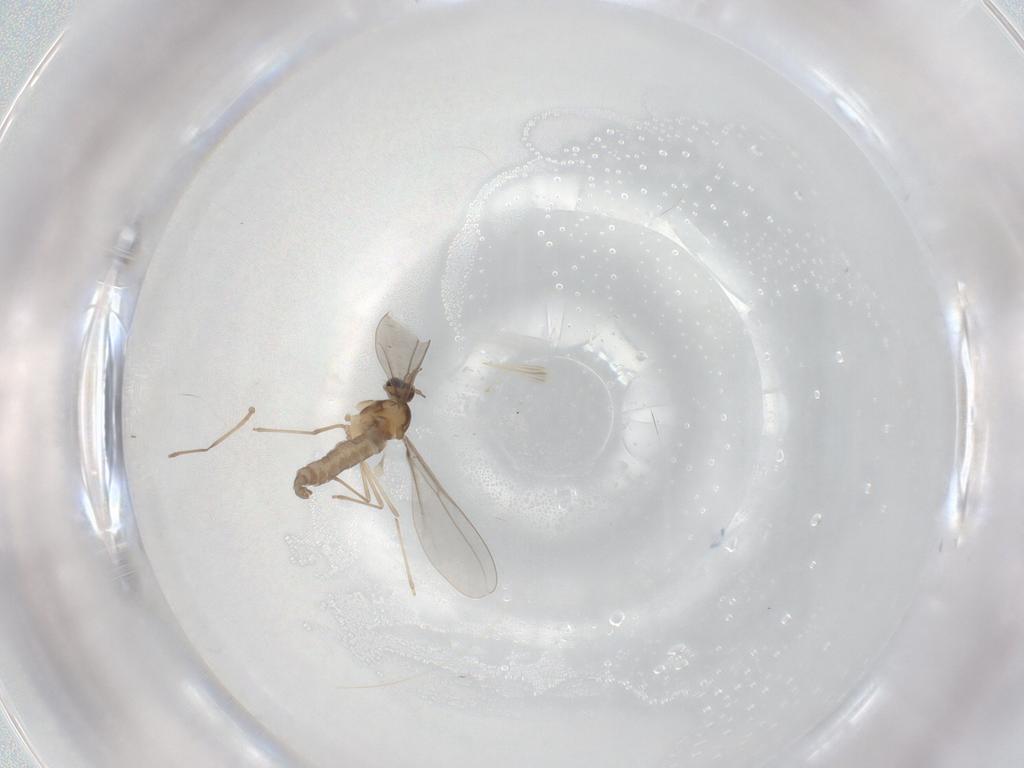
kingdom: Animalia
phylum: Arthropoda
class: Insecta
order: Diptera
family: Cecidomyiidae
